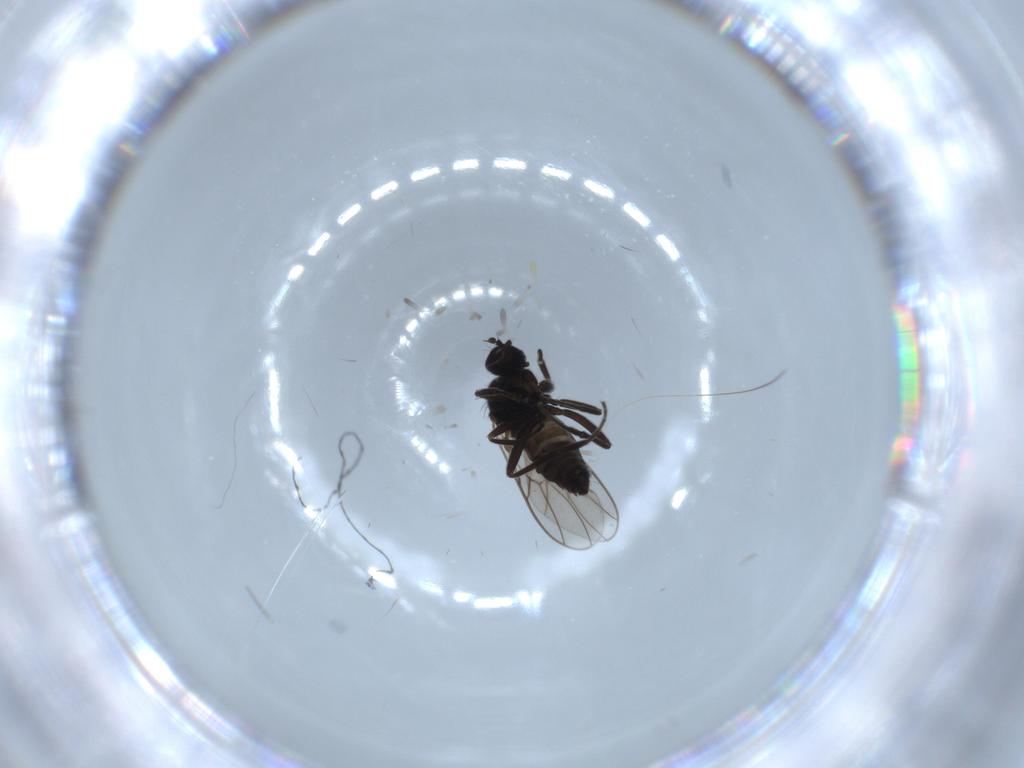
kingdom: Animalia
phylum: Arthropoda
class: Insecta
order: Diptera
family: Hybotidae
